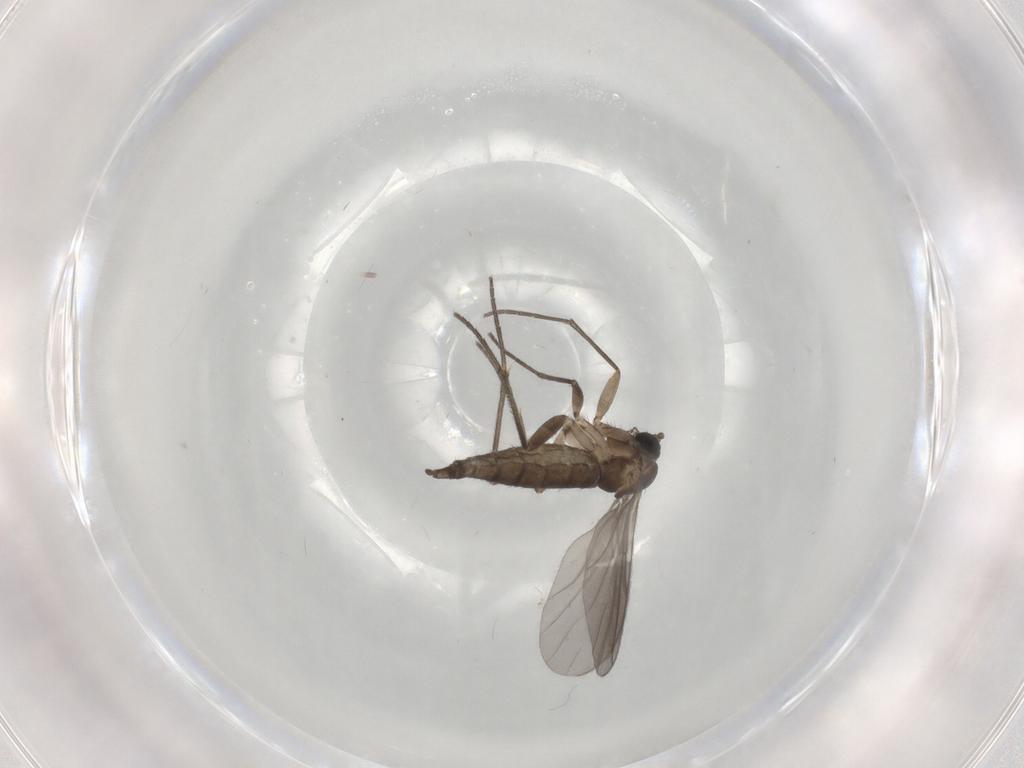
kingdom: Animalia
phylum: Arthropoda
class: Insecta
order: Diptera
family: Sciaridae
